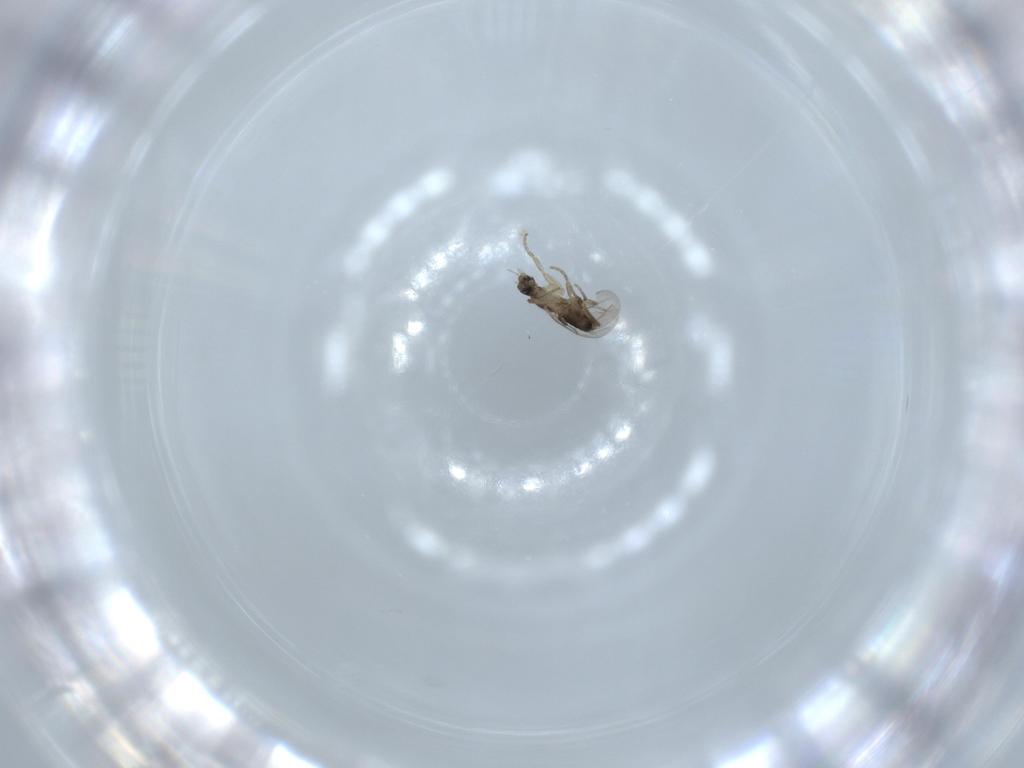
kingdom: Animalia
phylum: Arthropoda
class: Insecta
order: Diptera
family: Phoridae
